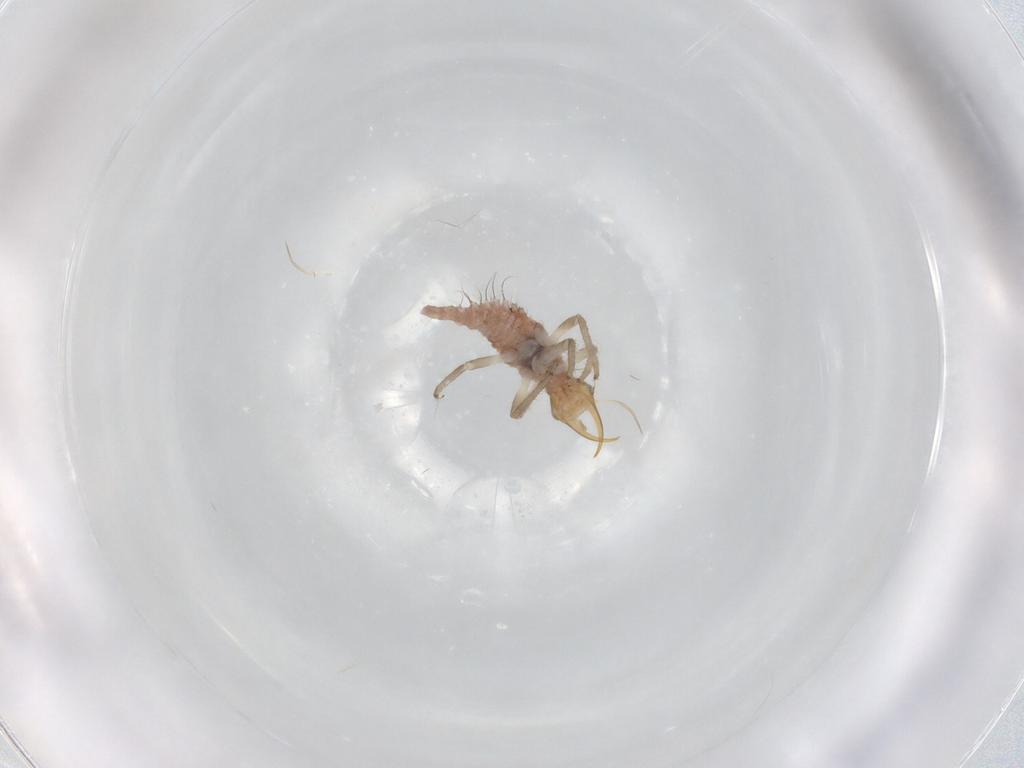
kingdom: Animalia
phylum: Arthropoda
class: Insecta
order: Neuroptera
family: Chrysopidae
